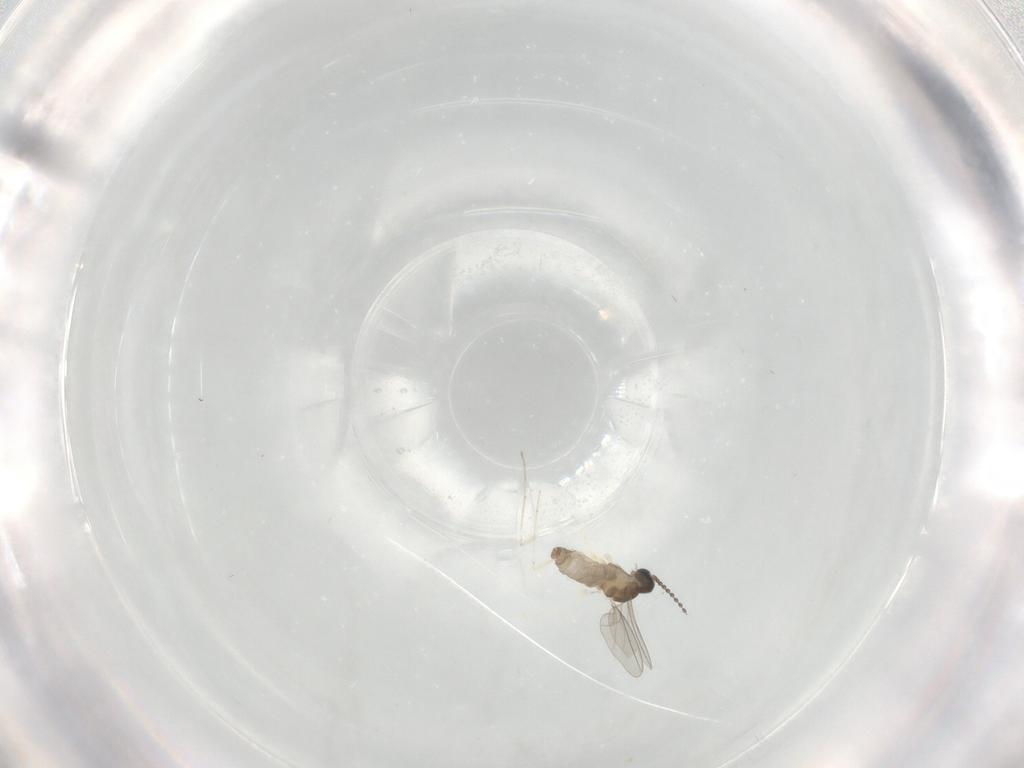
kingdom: Animalia
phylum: Arthropoda
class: Insecta
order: Diptera
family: Cecidomyiidae
